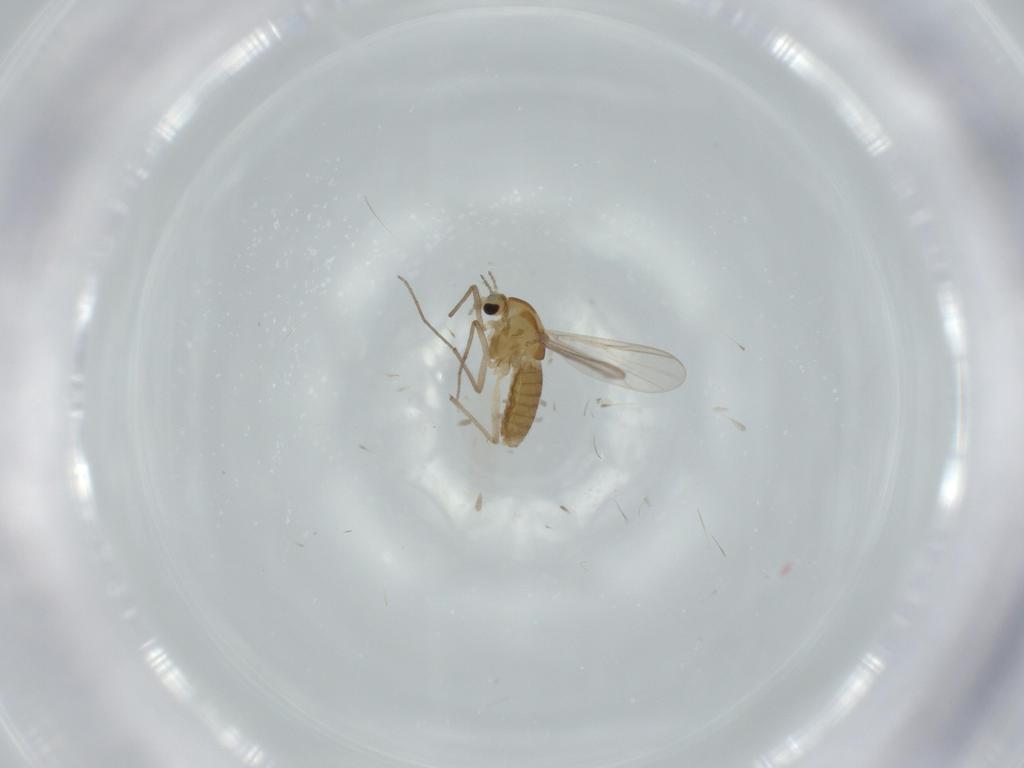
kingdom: Animalia
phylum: Arthropoda
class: Insecta
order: Diptera
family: Chironomidae
